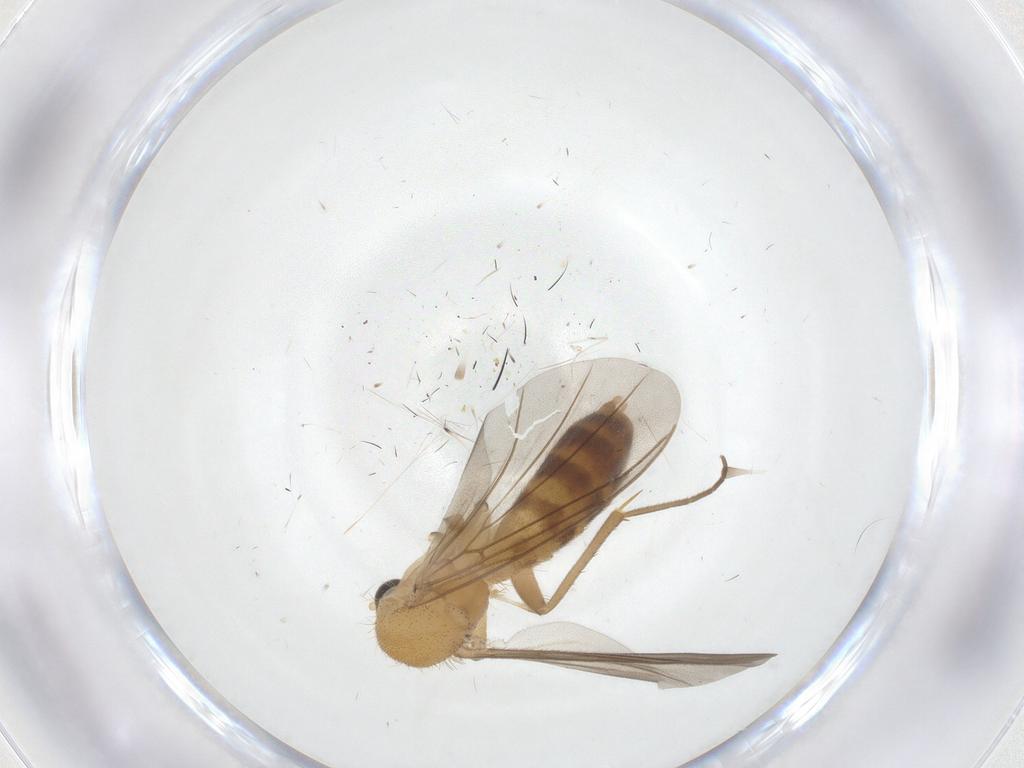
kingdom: Animalia
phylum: Arthropoda
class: Insecta
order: Diptera
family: Mycetophilidae
